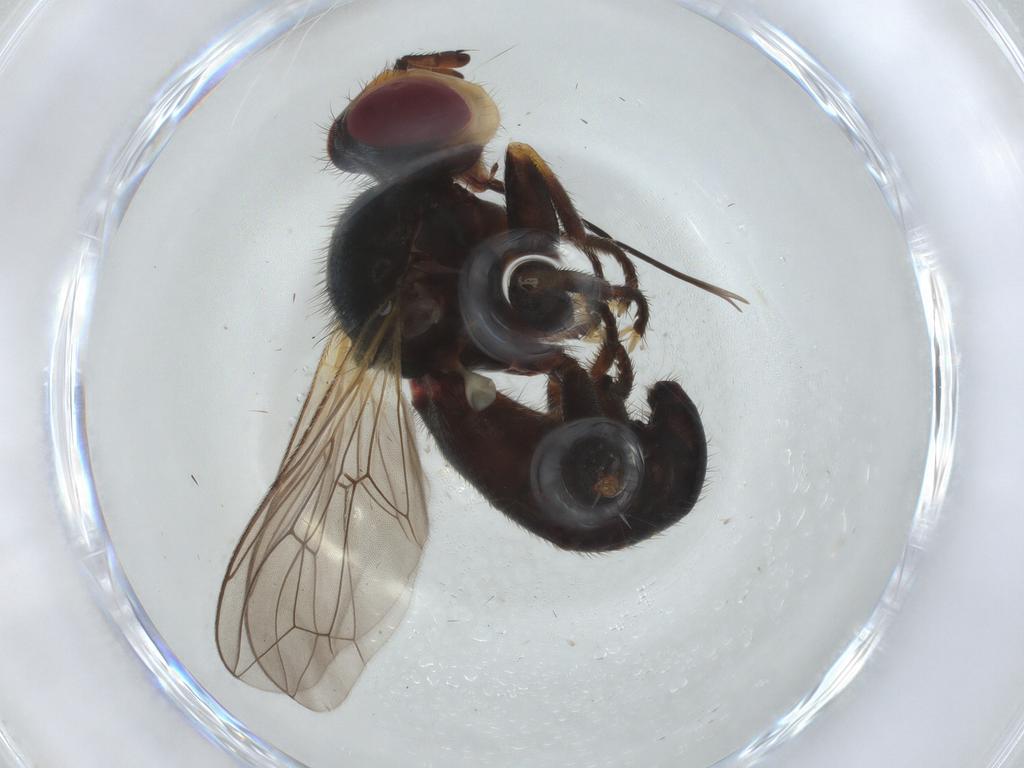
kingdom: Animalia
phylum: Arthropoda
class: Insecta
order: Diptera
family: Conopidae
